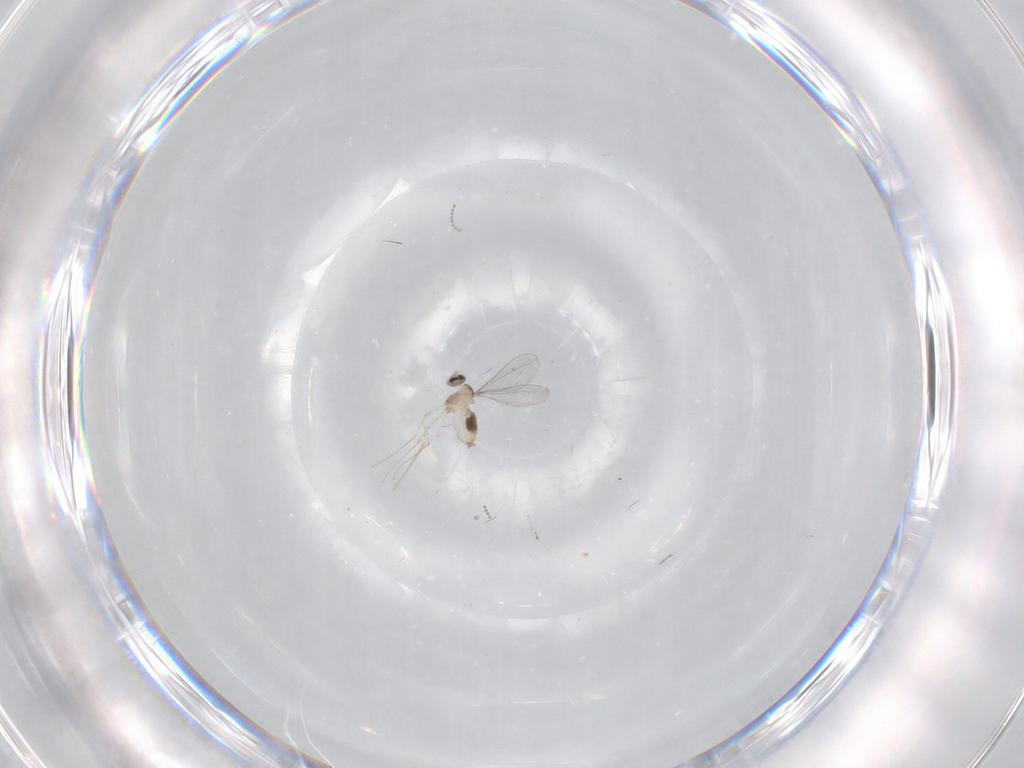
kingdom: Animalia
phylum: Arthropoda
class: Insecta
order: Diptera
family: Cecidomyiidae
